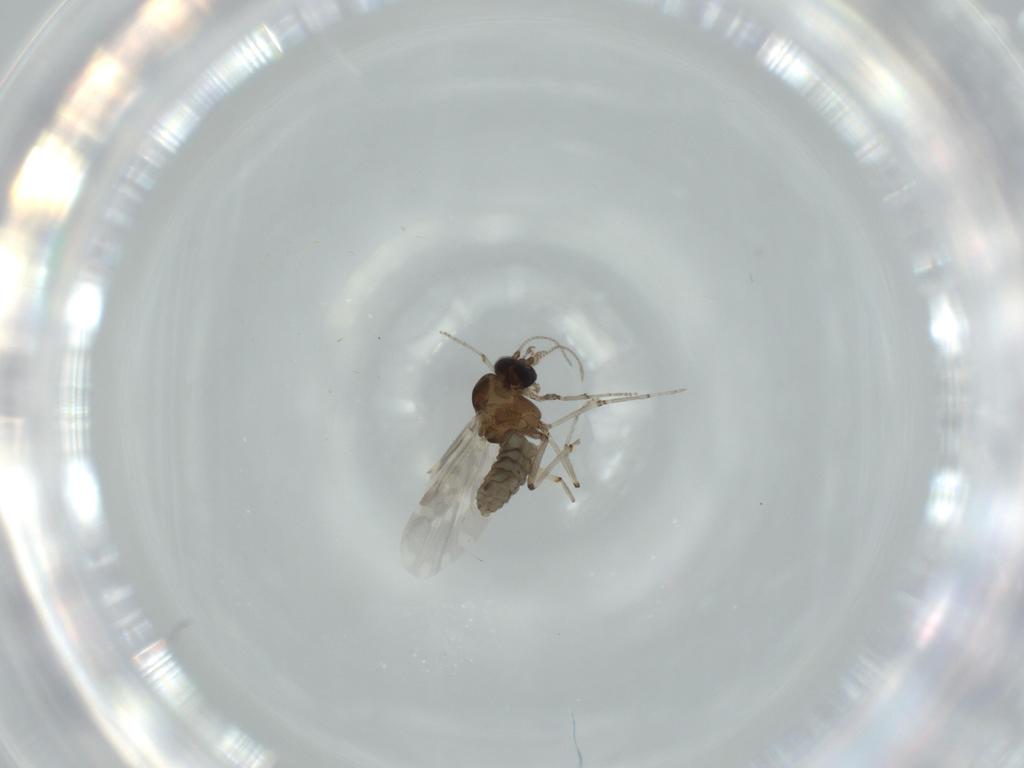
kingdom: Animalia
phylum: Arthropoda
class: Insecta
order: Diptera
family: Ceratopogonidae
